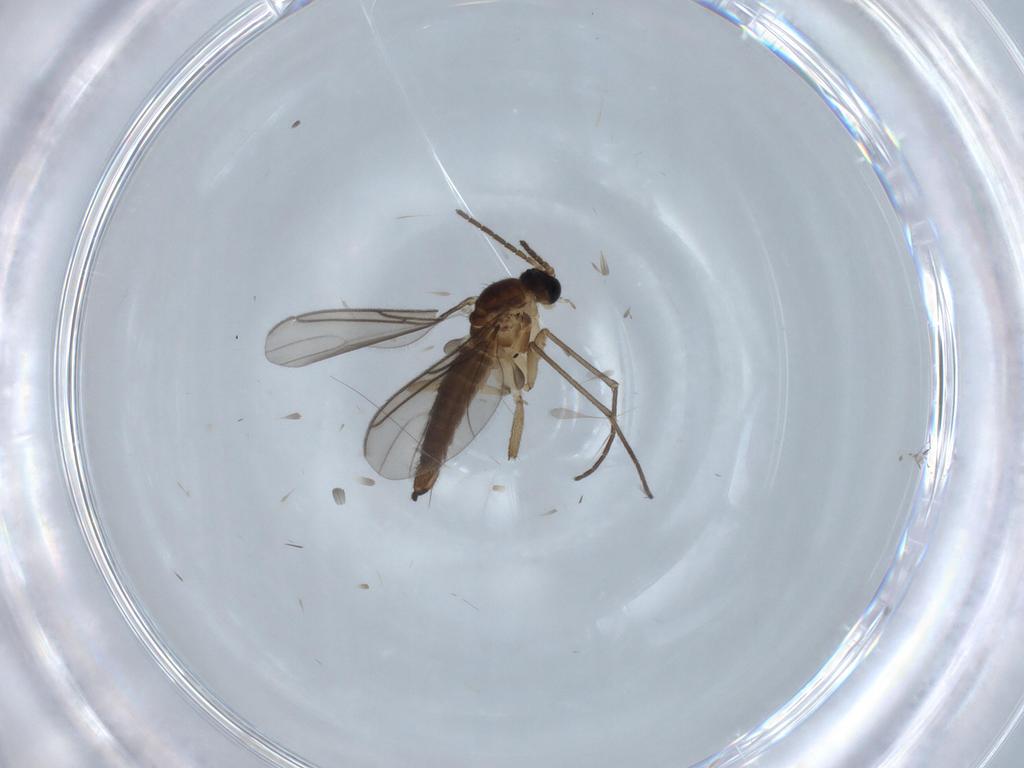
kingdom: Animalia
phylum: Arthropoda
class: Insecta
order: Diptera
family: Sciaridae
